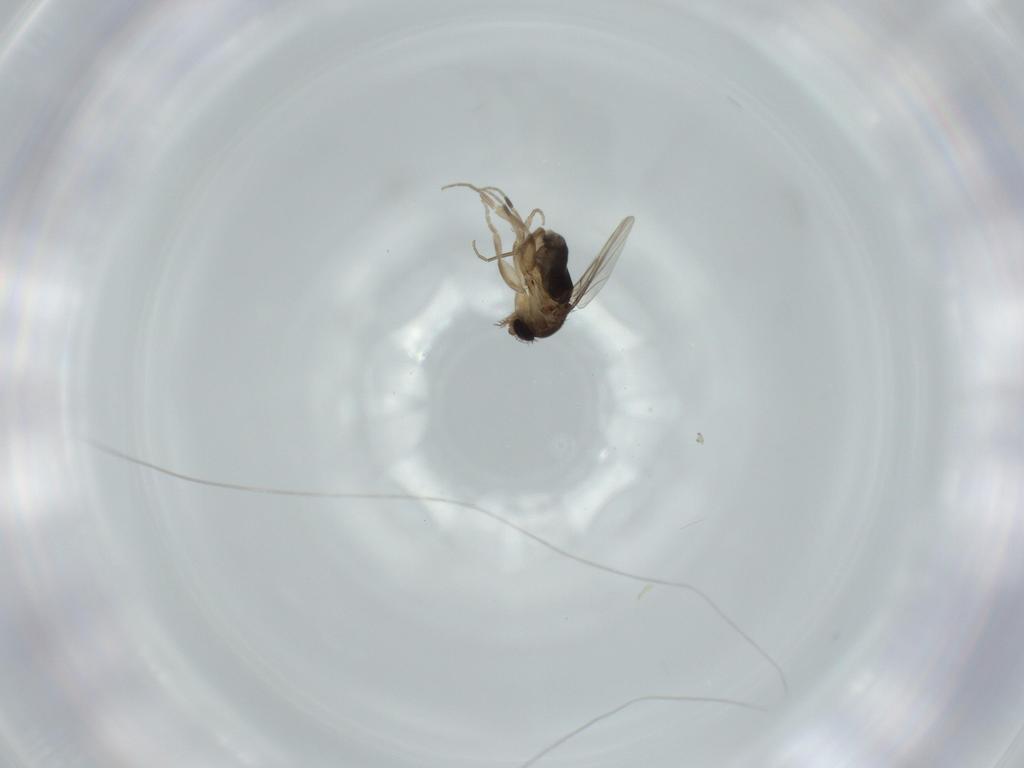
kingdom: Animalia
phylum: Arthropoda
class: Insecta
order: Diptera
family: Phoridae
